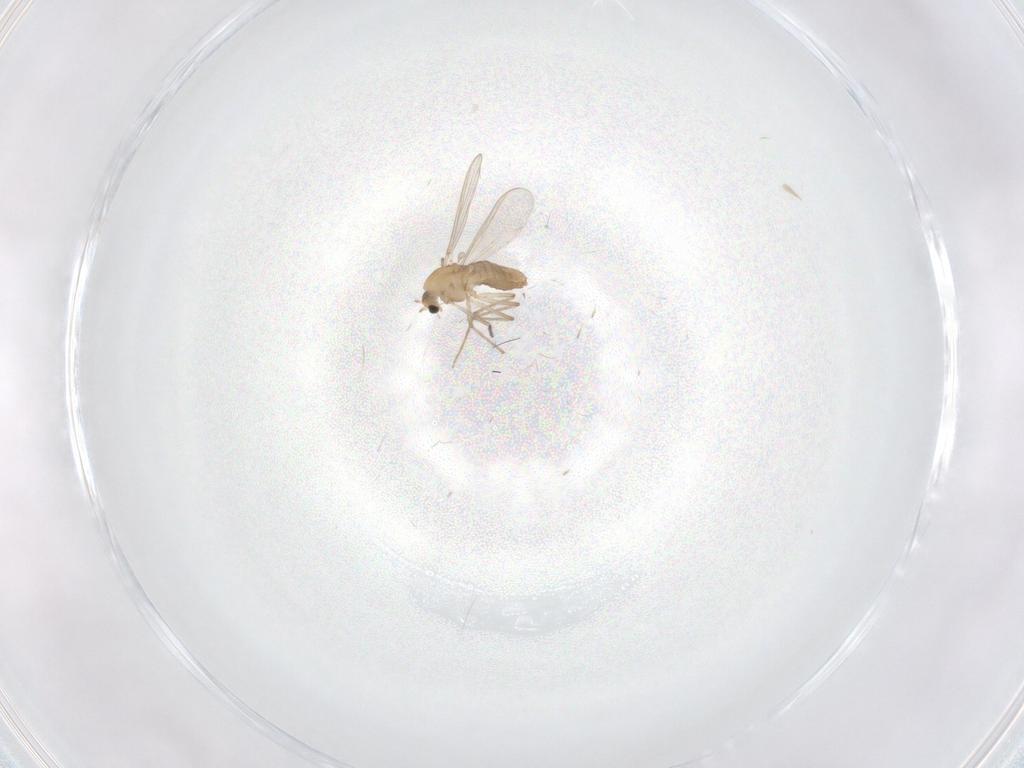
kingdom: Animalia
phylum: Arthropoda
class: Insecta
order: Diptera
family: Chironomidae
